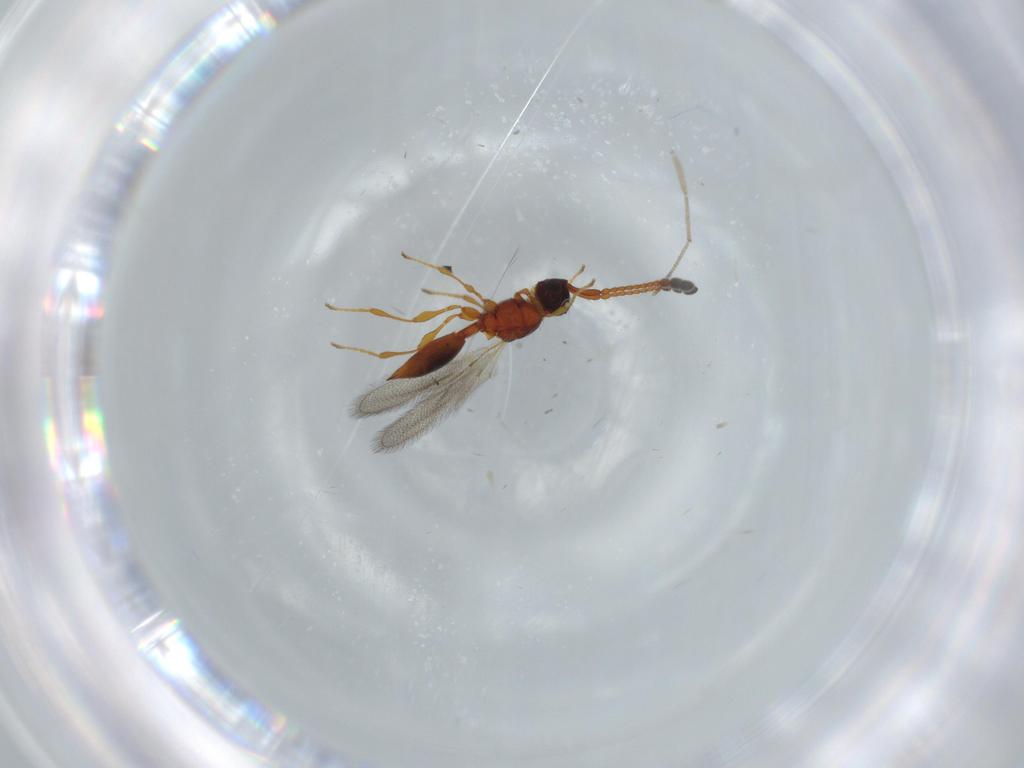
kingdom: Animalia
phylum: Arthropoda
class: Insecta
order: Hymenoptera
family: Diapriidae
